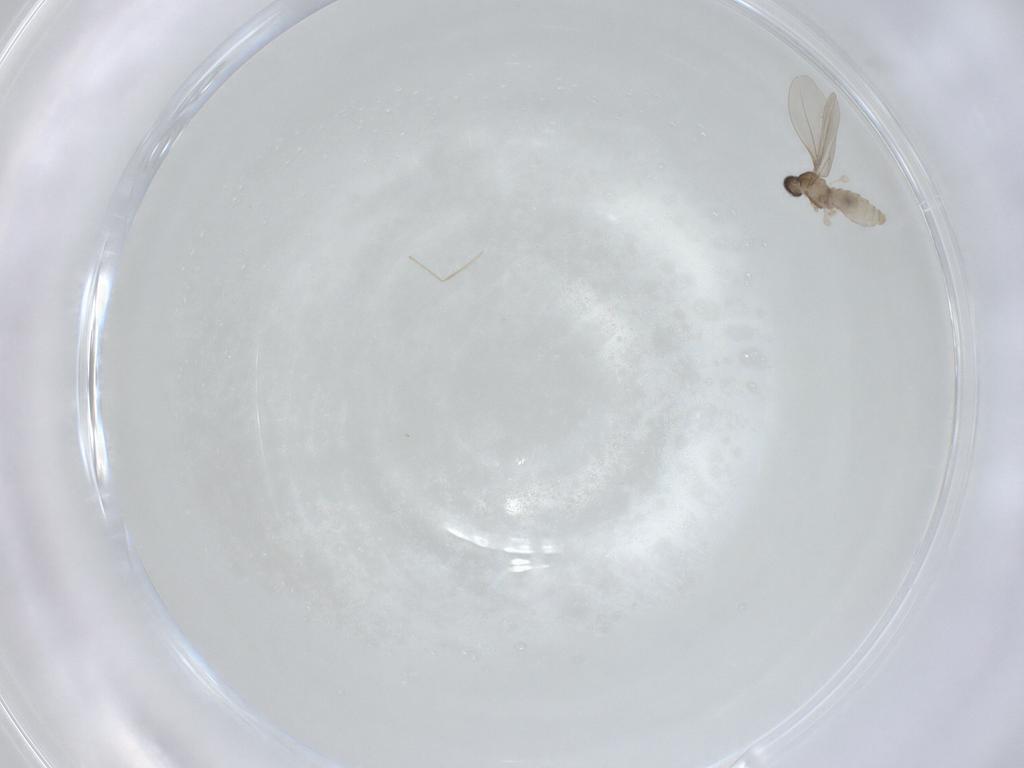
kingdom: Animalia
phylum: Arthropoda
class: Insecta
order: Diptera
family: Cecidomyiidae
